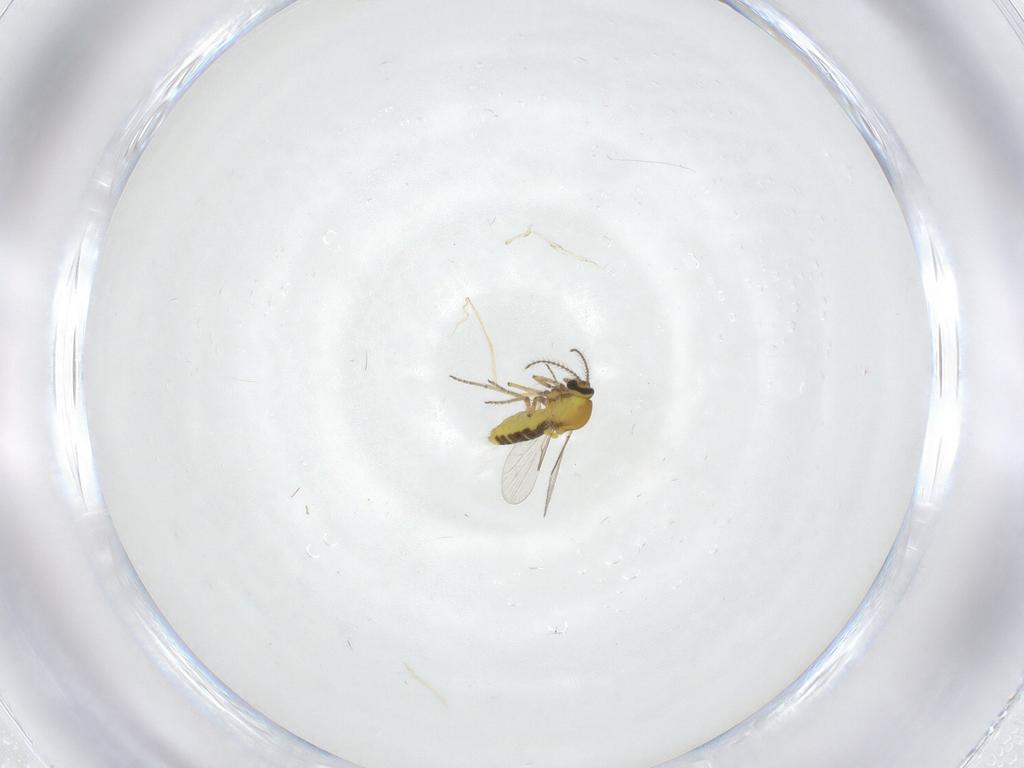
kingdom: Animalia
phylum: Arthropoda
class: Insecta
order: Diptera
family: Ceratopogonidae
